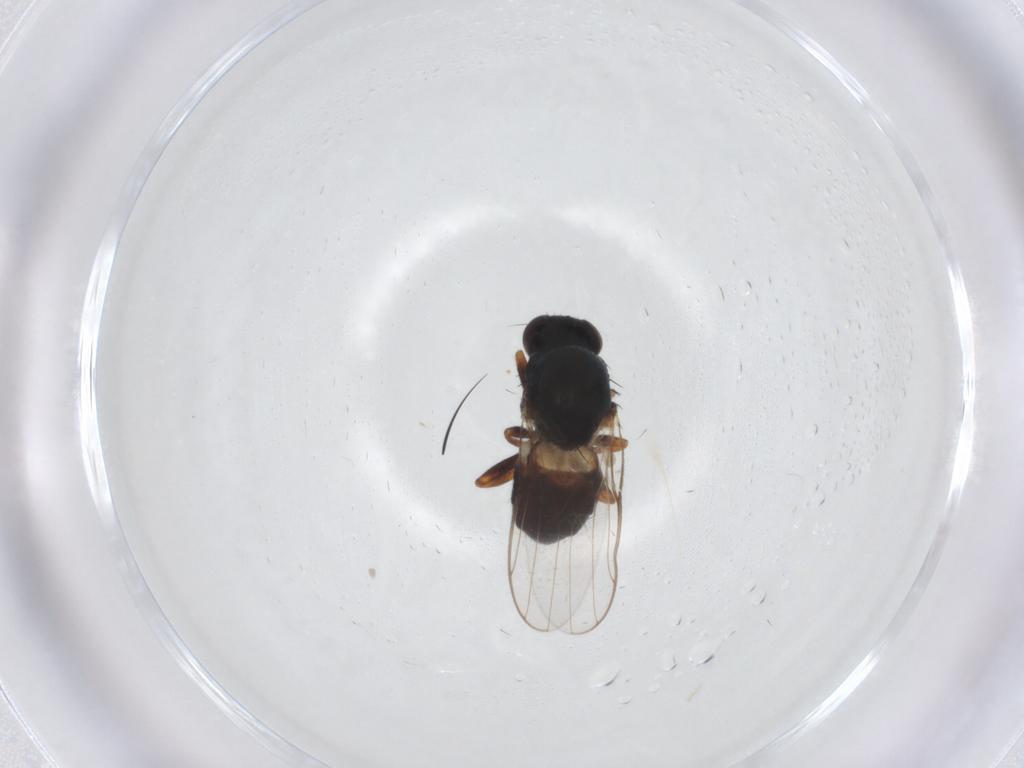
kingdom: Animalia
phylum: Arthropoda
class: Insecta
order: Diptera
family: Chloropidae
